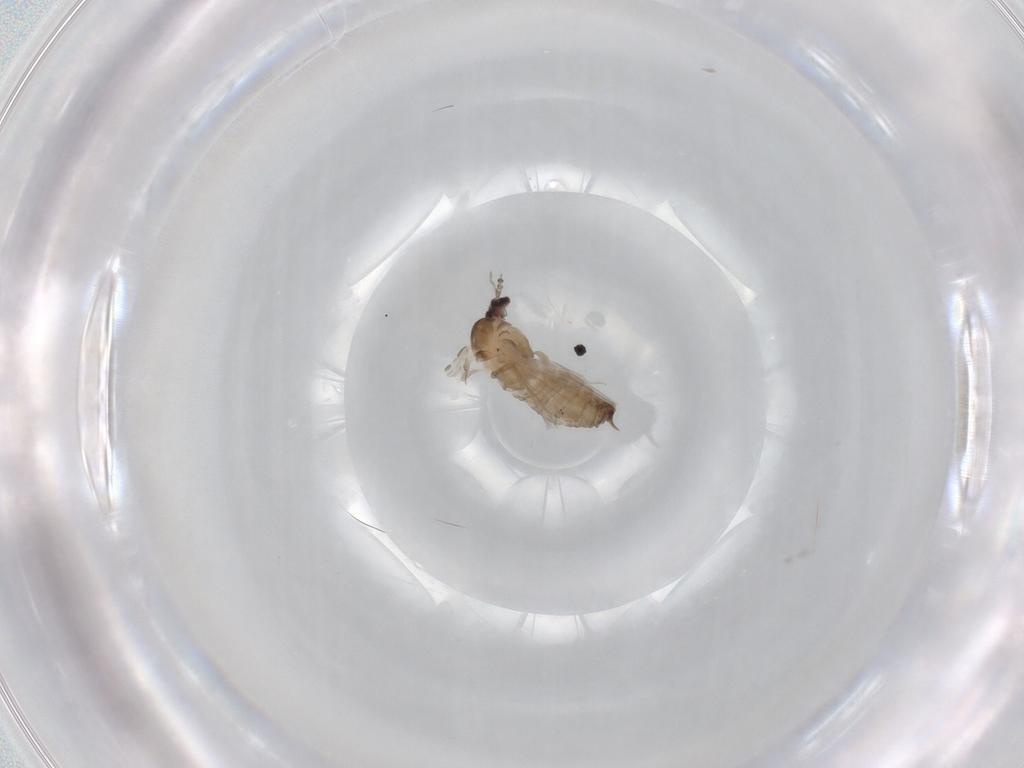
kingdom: Animalia
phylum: Arthropoda
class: Insecta
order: Diptera
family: Psychodidae
